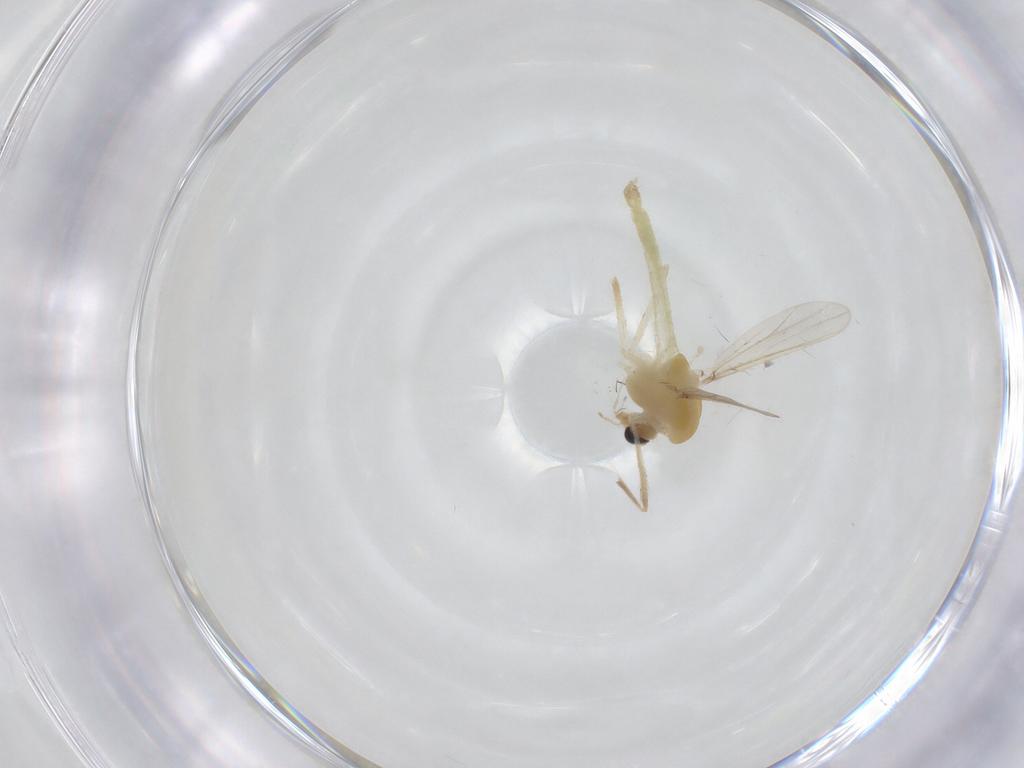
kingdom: Animalia
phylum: Arthropoda
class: Insecta
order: Diptera
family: Chironomidae
